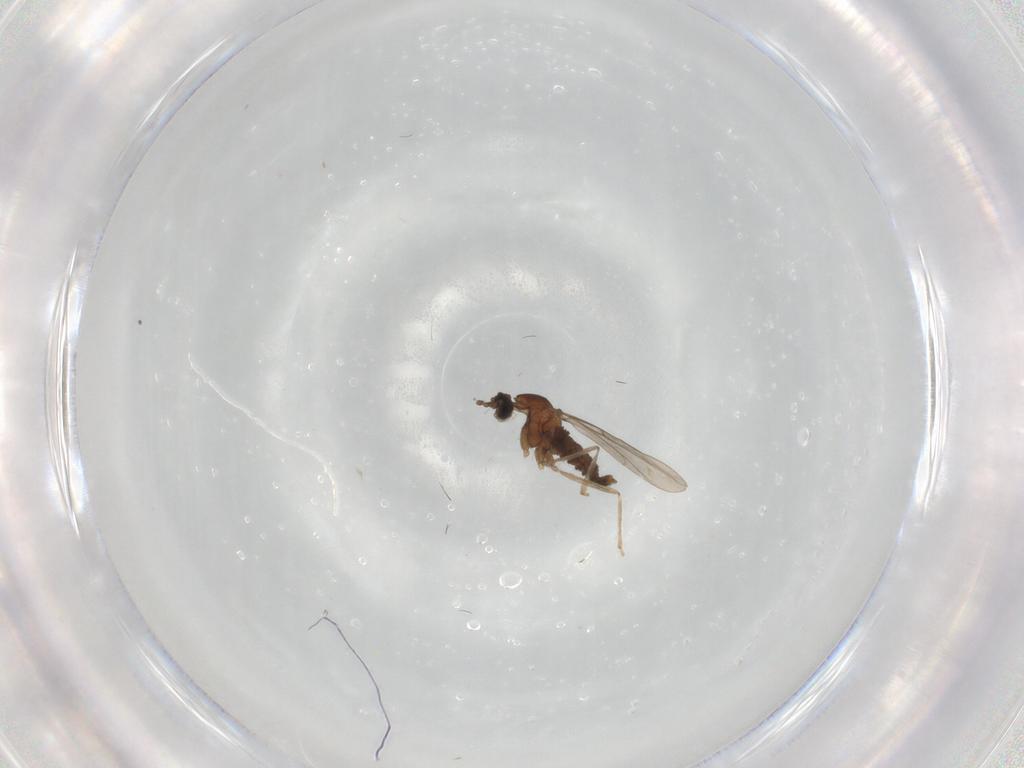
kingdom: Animalia
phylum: Arthropoda
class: Insecta
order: Diptera
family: Cecidomyiidae
